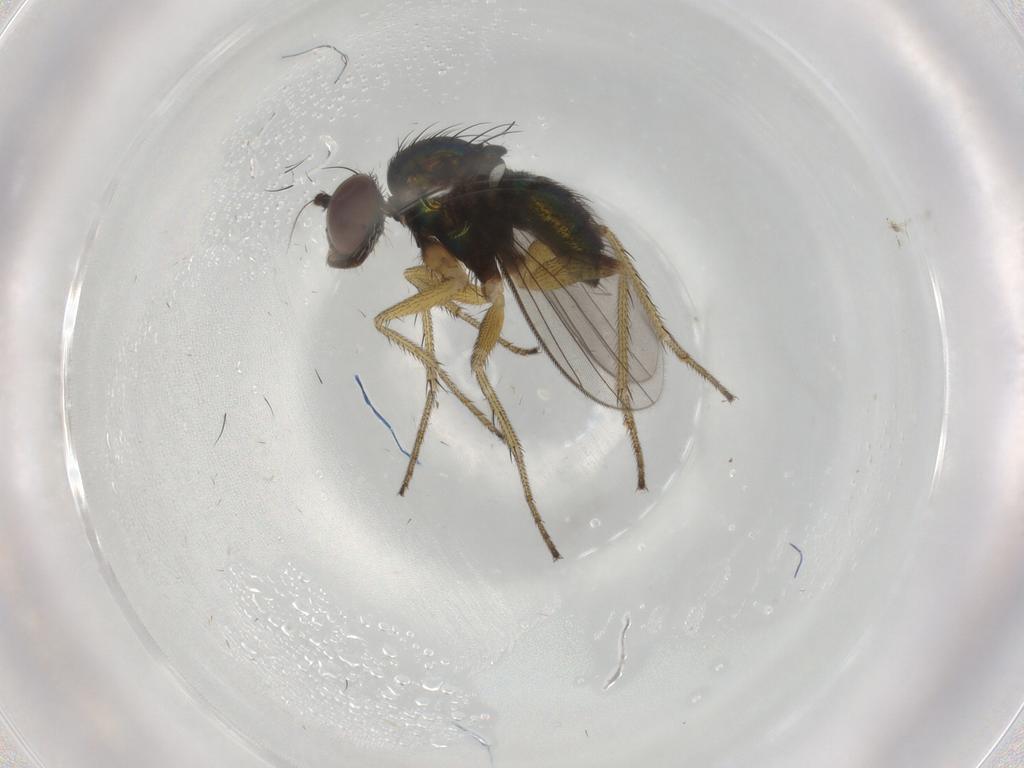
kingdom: Animalia
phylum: Arthropoda
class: Insecta
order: Diptera
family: Dolichopodidae
